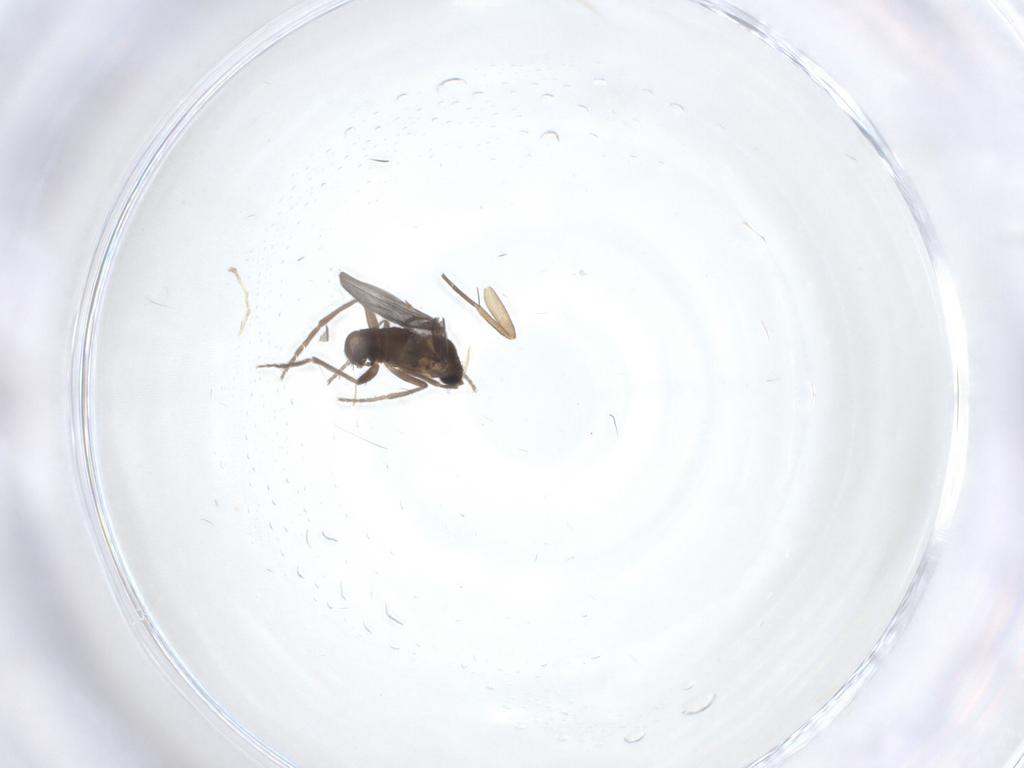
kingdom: Animalia
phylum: Arthropoda
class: Insecta
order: Diptera
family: Phoridae
